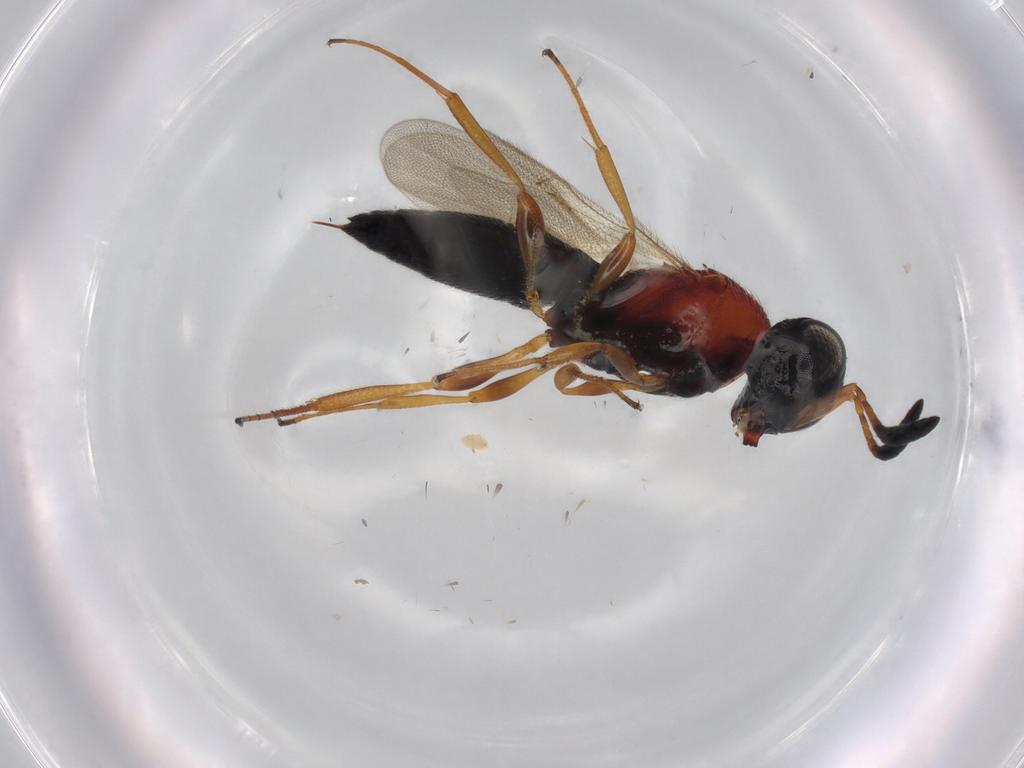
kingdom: Animalia
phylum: Arthropoda
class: Insecta
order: Hymenoptera
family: Scelionidae
